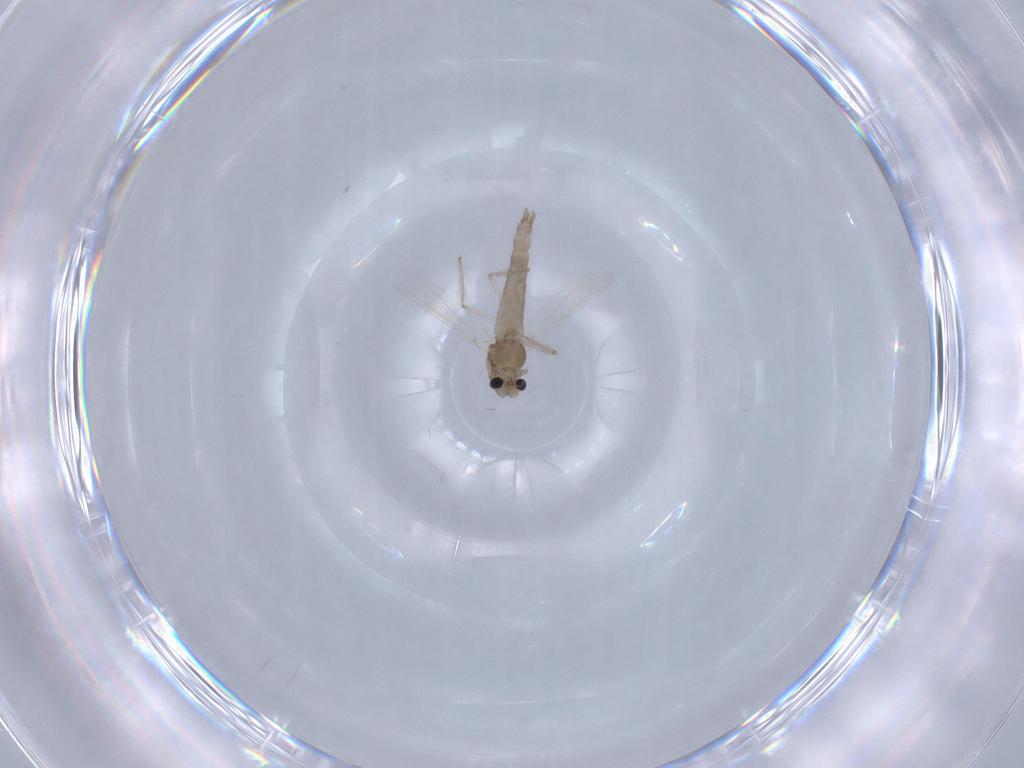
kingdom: Animalia
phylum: Arthropoda
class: Insecta
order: Diptera
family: Chironomidae
